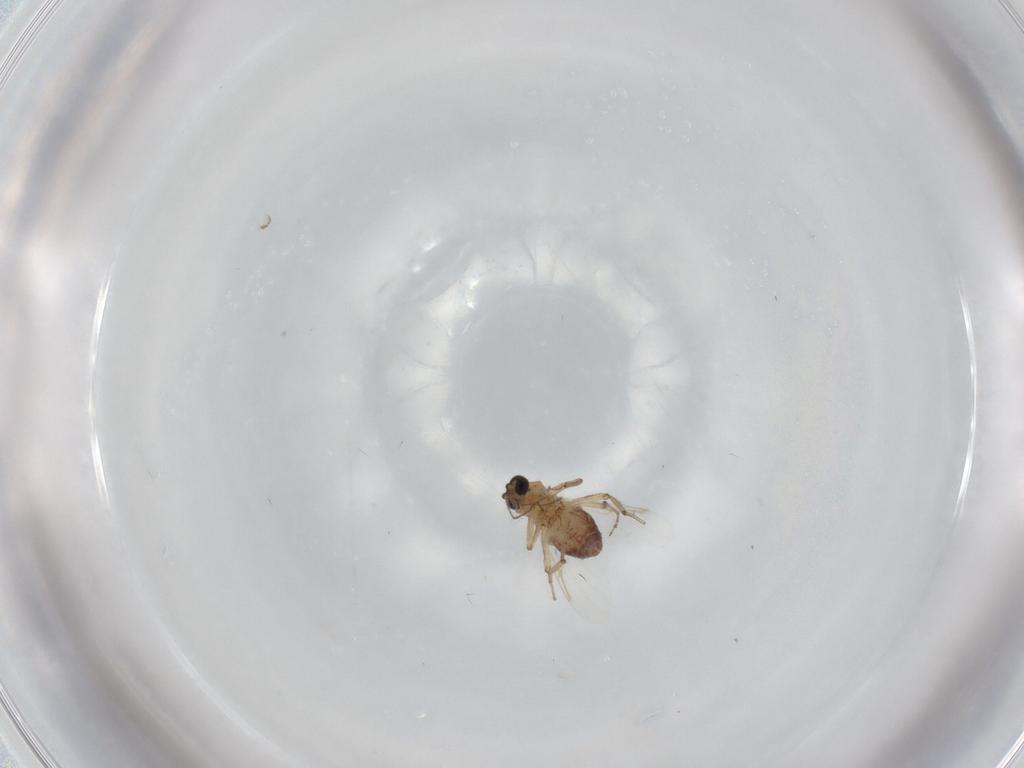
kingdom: Animalia
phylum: Arthropoda
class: Insecta
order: Diptera
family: Ceratopogonidae
